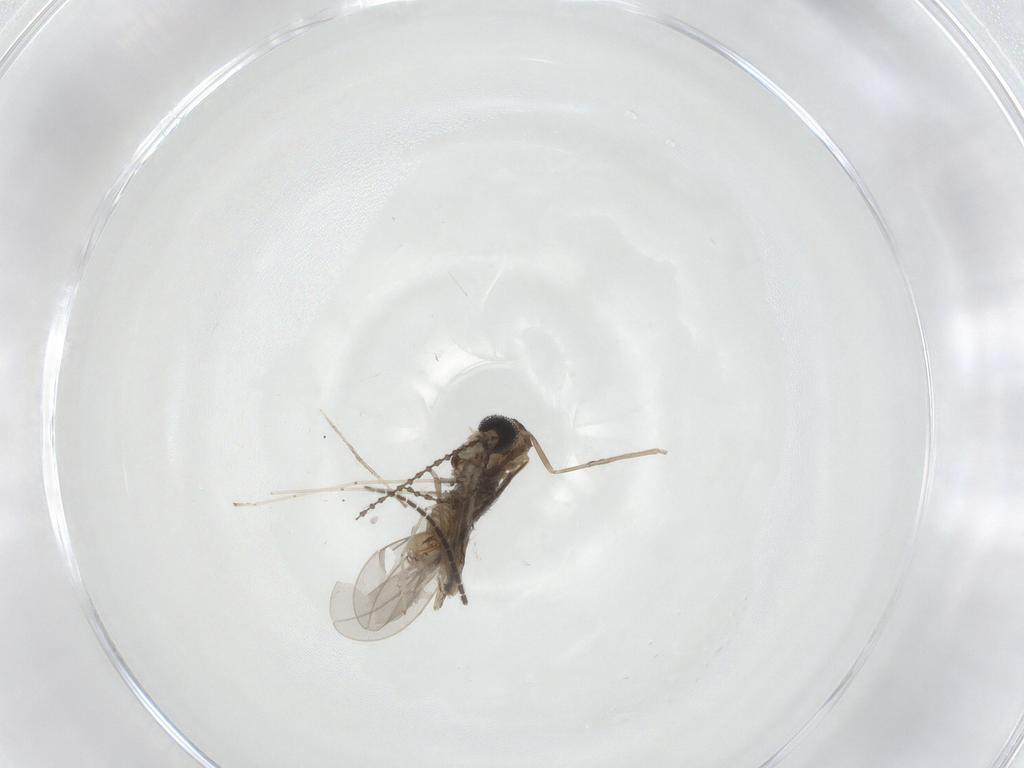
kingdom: Animalia
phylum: Arthropoda
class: Insecta
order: Diptera
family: Cecidomyiidae
